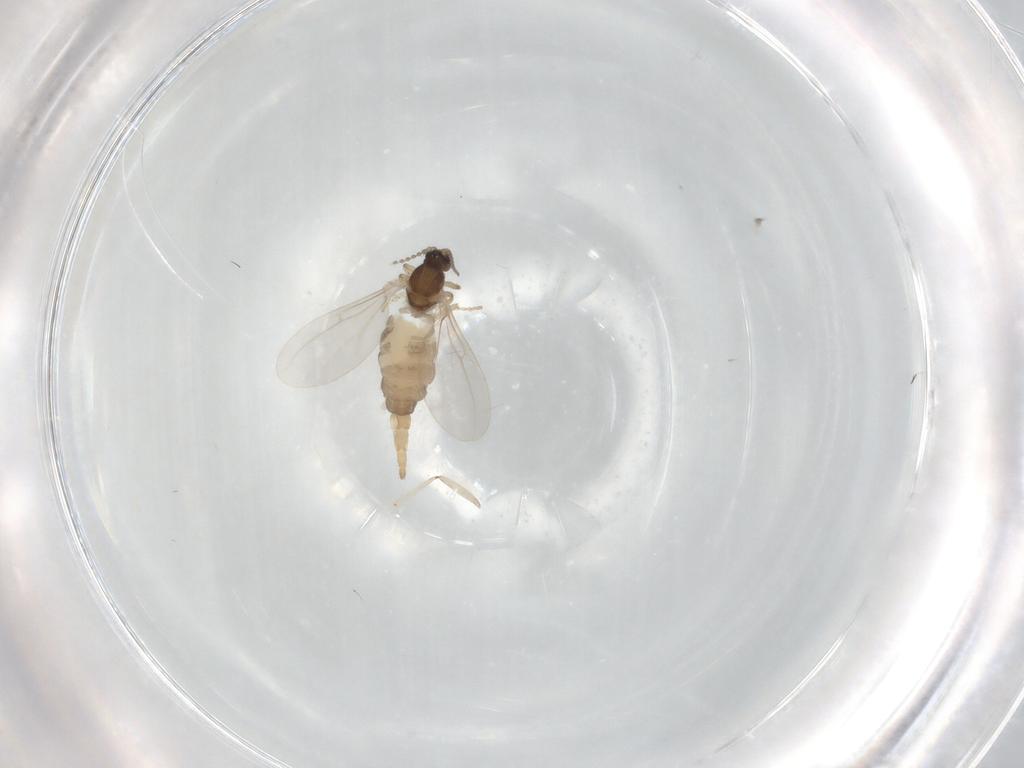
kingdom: Animalia
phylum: Arthropoda
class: Insecta
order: Diptera
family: Cecidomyiidae
